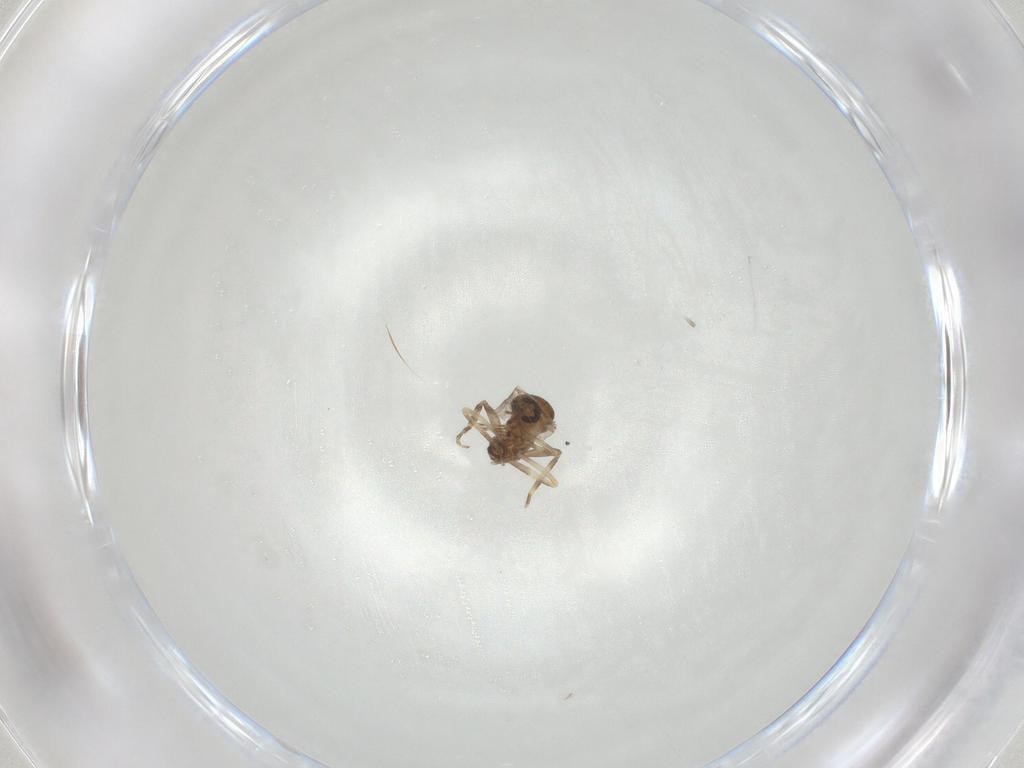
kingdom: Animalia
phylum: Arthropoda
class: Insecta
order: Diptera
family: Ceratopogonidae
